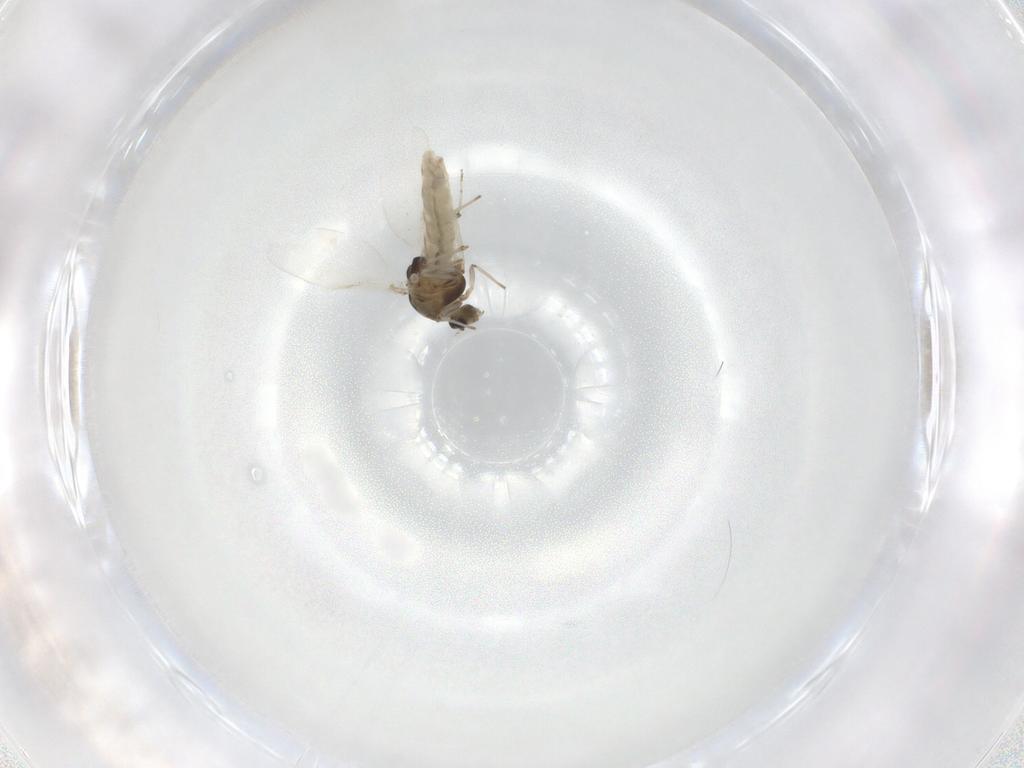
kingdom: Animalia
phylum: Arthropoda
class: Insecta
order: Diptera
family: Chironomidae
